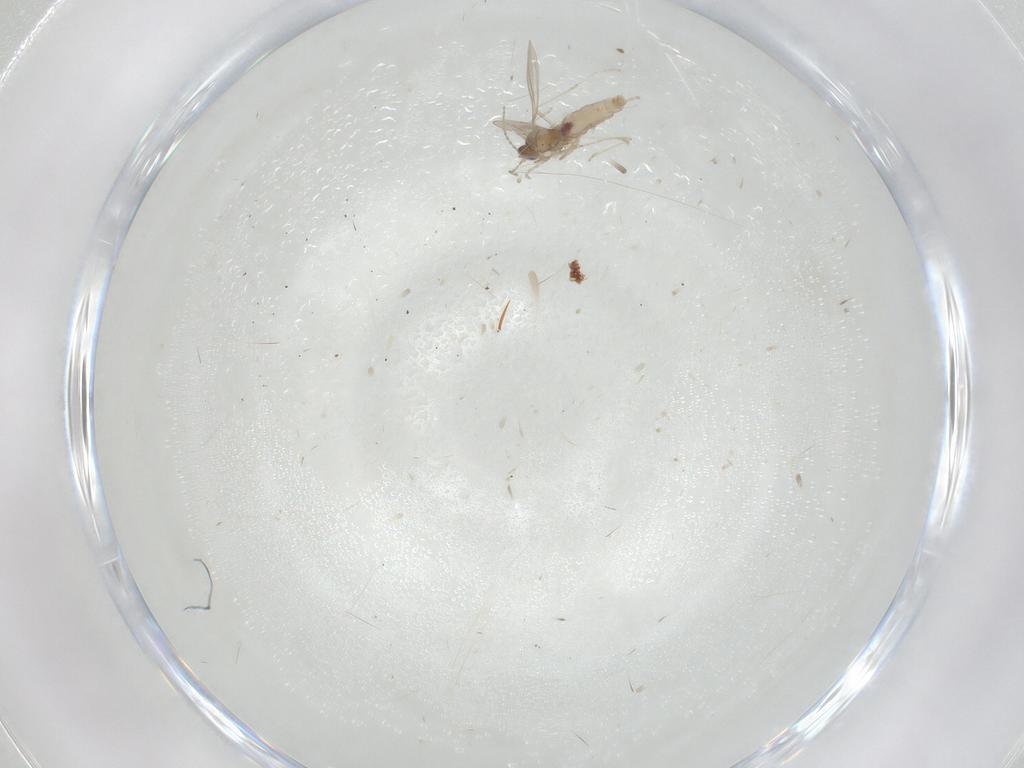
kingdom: Animalia
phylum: Arthropoda
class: Insecta
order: Diptera
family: Cecidomyiidae
